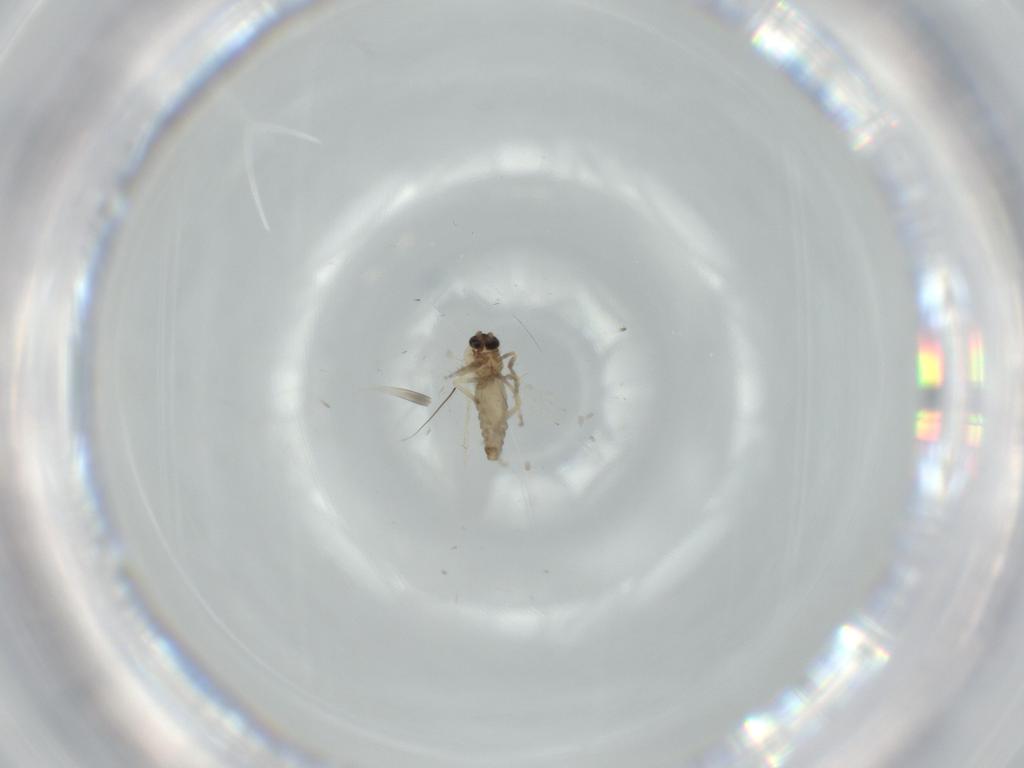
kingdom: Animalia
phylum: Arthropoda
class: Insecta
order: Diptera
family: Ceratopogonidae
